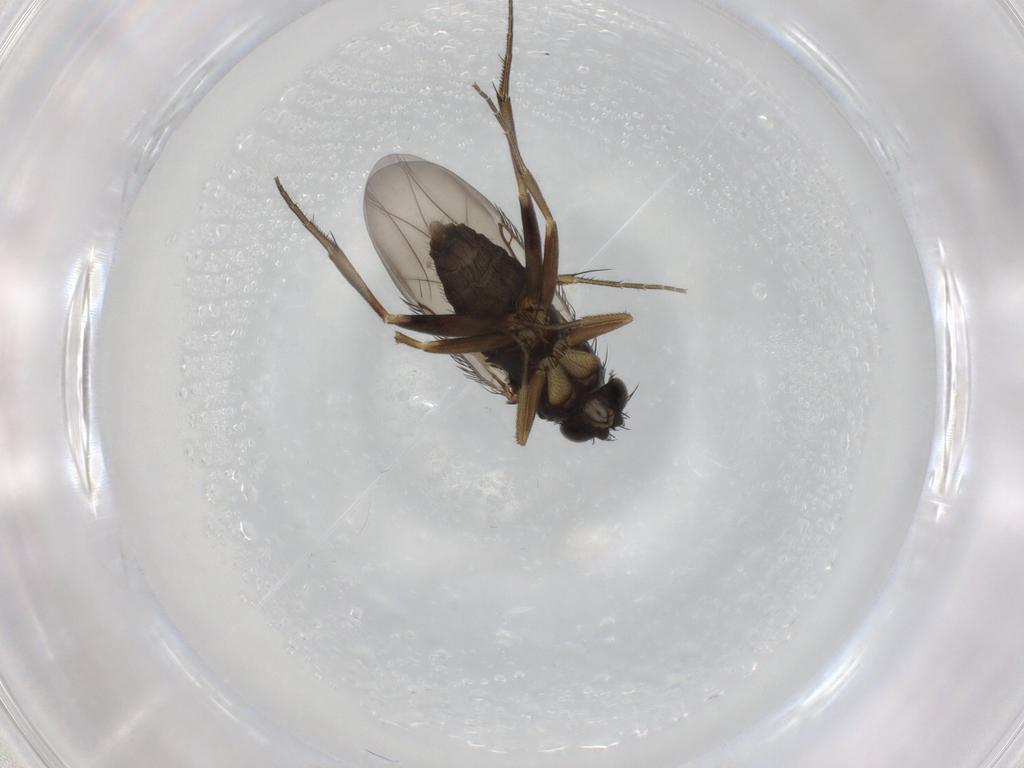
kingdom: Animalia
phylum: Arthropoda
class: Insecta
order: Diptera
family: Phoridae
